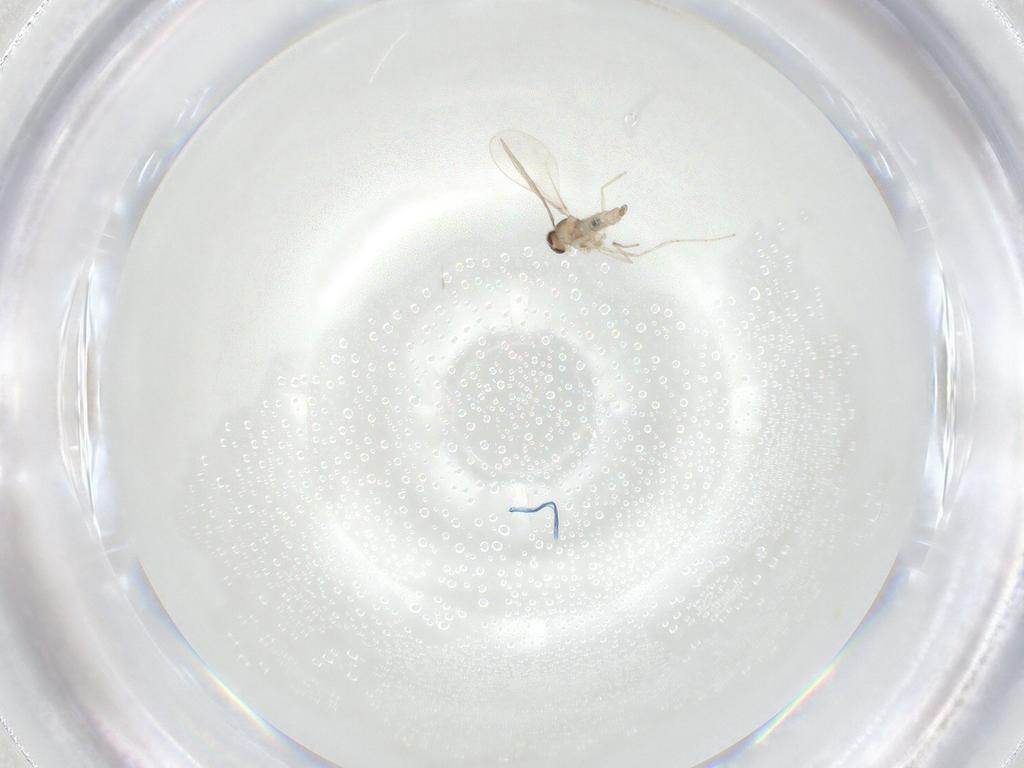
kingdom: Animalia
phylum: Arthropoda
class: Insecta
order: Diptera
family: Cecidomyiidae
